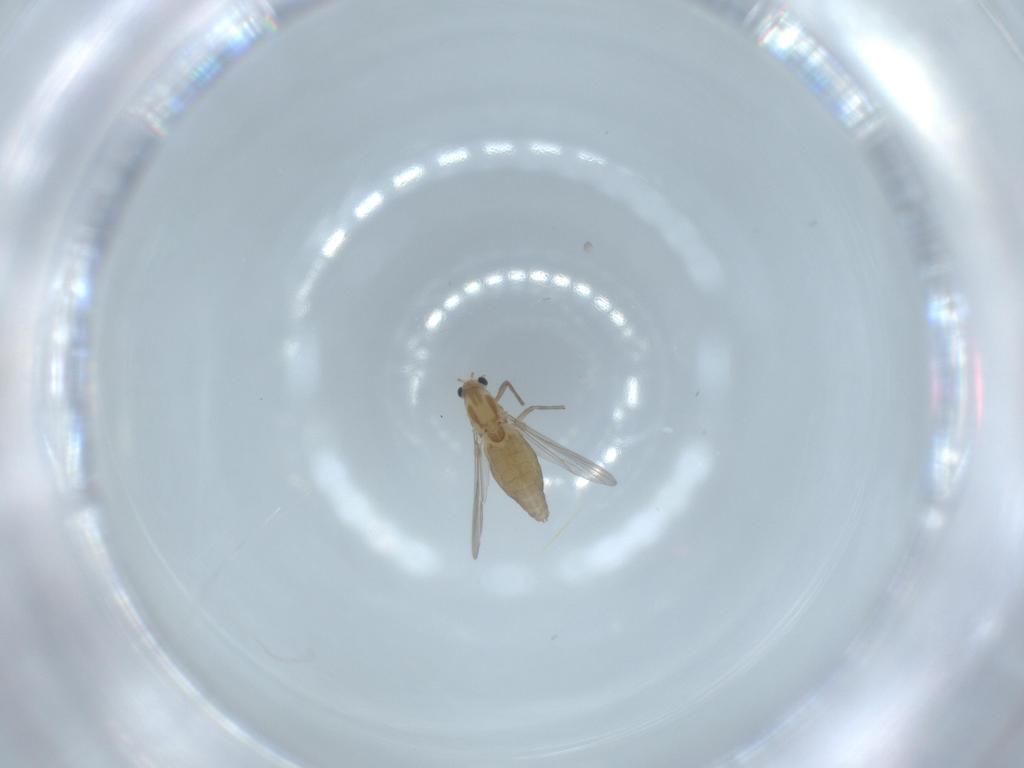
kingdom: Animalia
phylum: Arthropoda
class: Insecta
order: Diptera
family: Chironomidae
